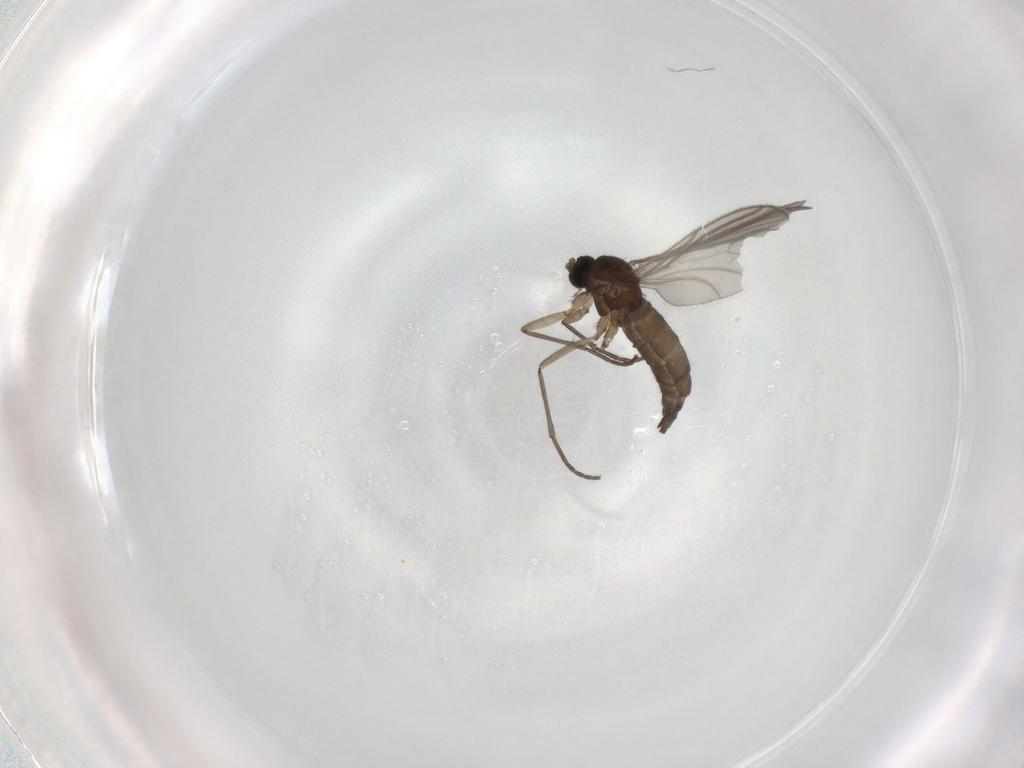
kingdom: Animalia
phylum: Arthropoda
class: Insecta
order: Diptera
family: Sciaridae
